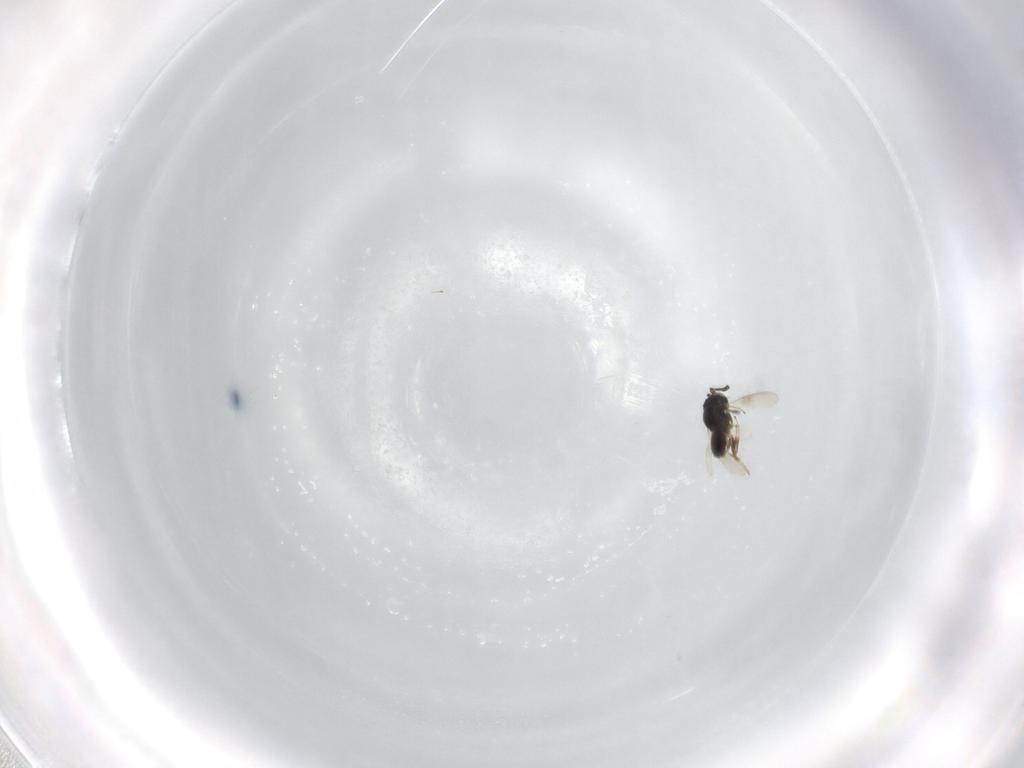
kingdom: Animalia
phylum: Arthropoda
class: Insecta
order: Hymenoptera
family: Scelionidae
